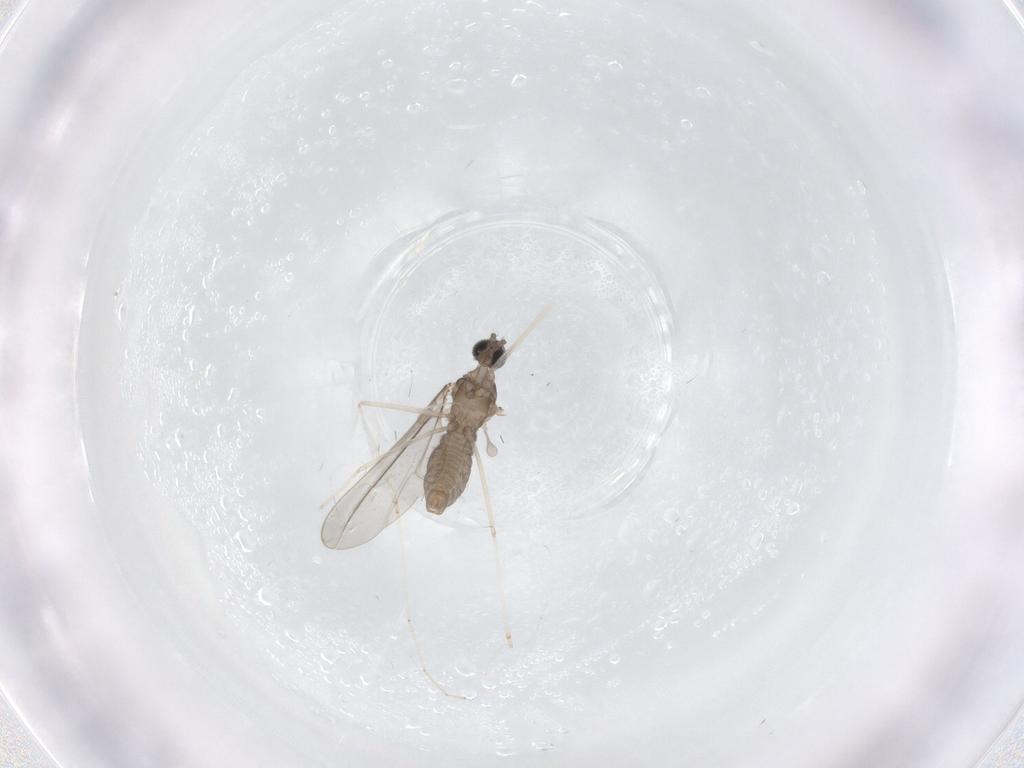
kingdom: Animalia
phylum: Arthropoda
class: Insecta
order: Diptera
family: Cecidomyiidae
